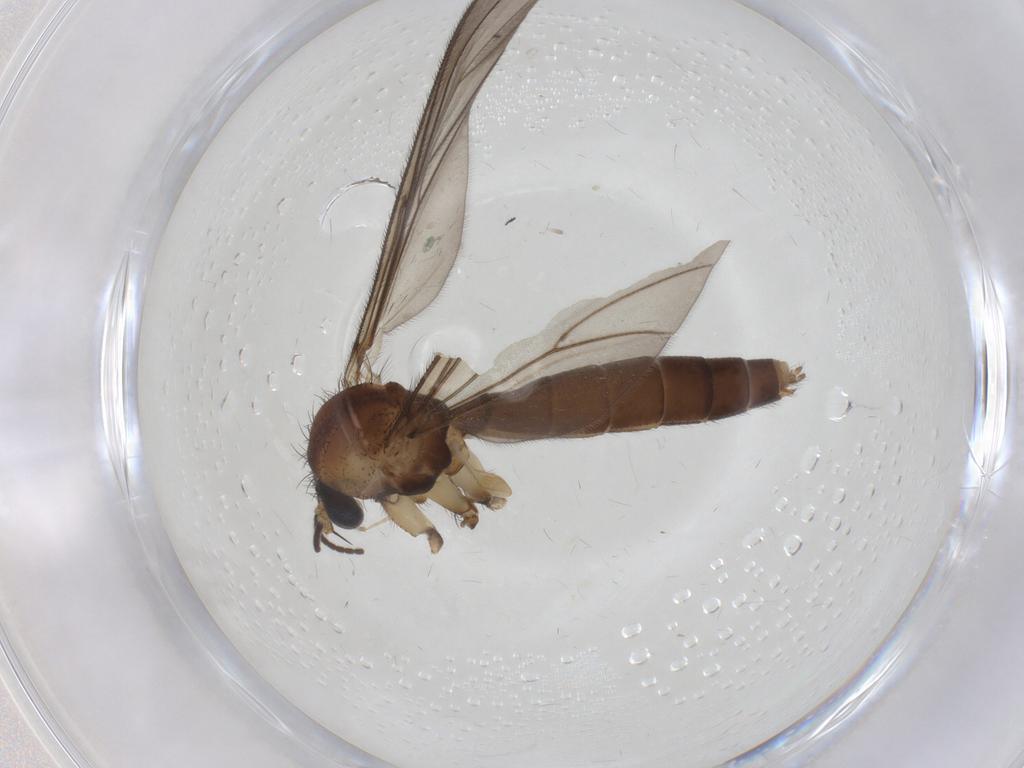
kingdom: Animalia
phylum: Arthropoda
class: Insecta
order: Diptera
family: Mycetophilidae
